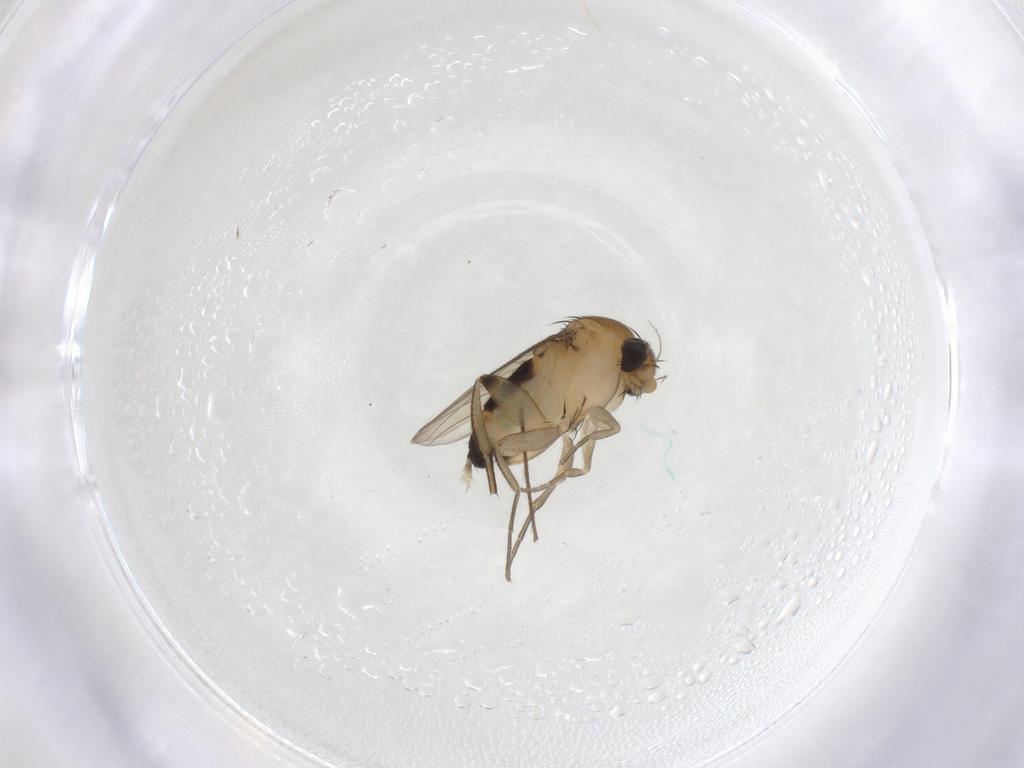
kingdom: Animalia
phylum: Arthropoda
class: Insecta
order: Diptera
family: Phoridae
